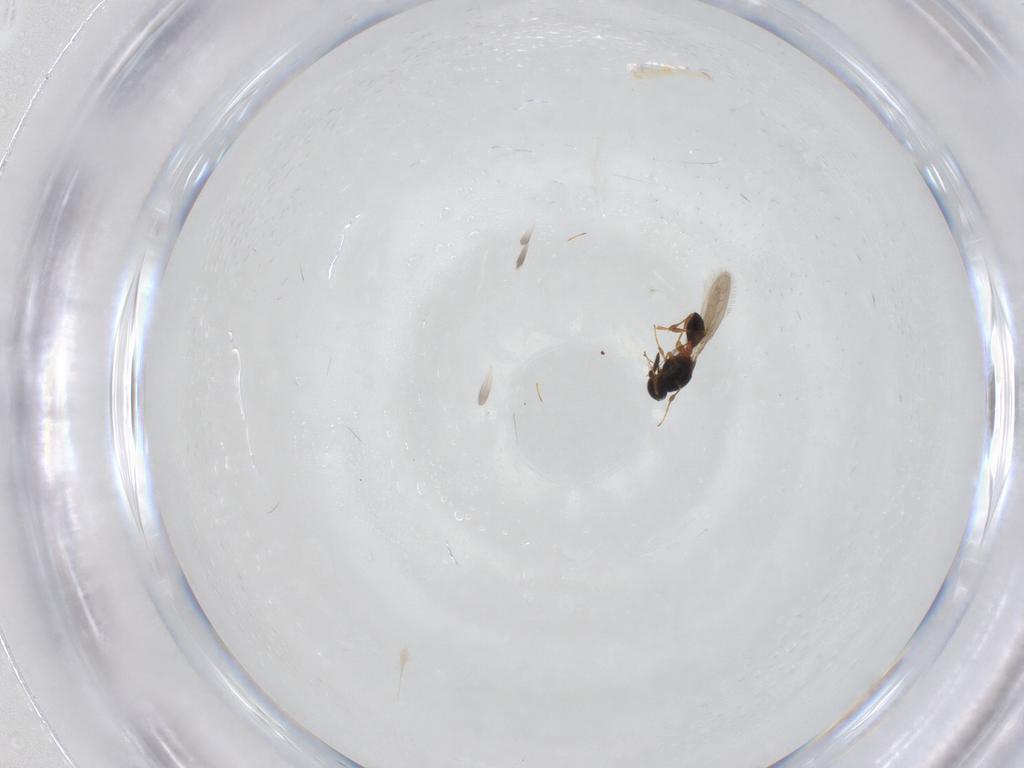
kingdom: Animalia
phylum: Arthropoda
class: Insecta
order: Hymenoptera
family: Platygastridae
